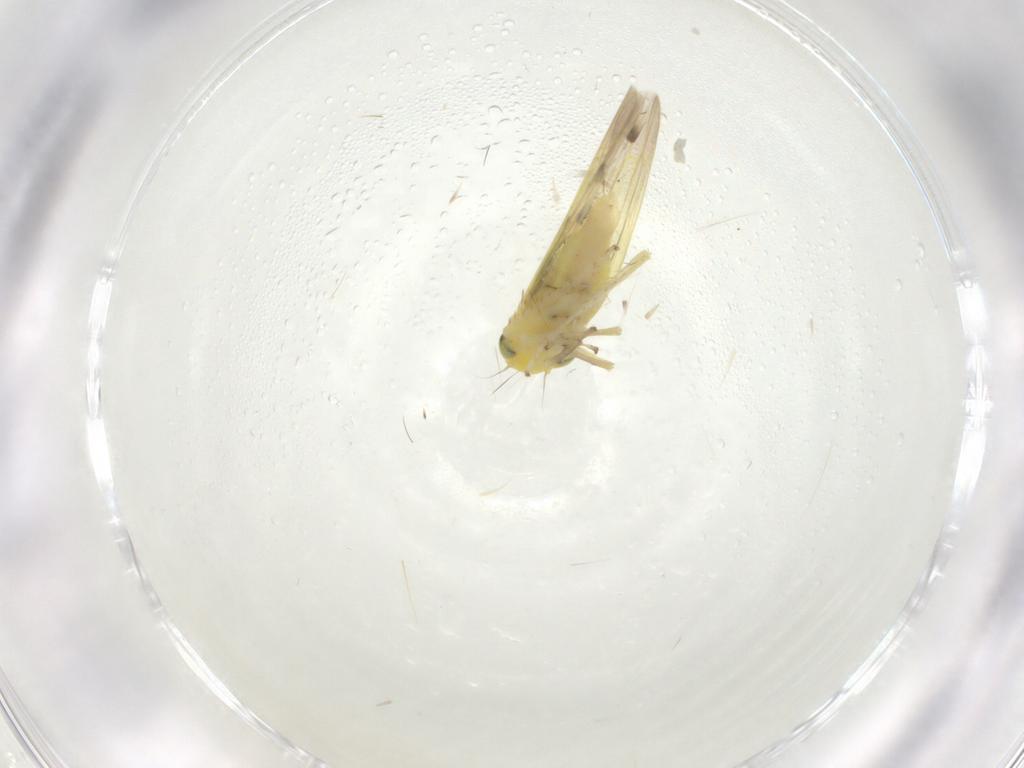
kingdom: Animalia
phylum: Arthropoda
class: Insecta
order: Hemiptera
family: Cicadellidae
